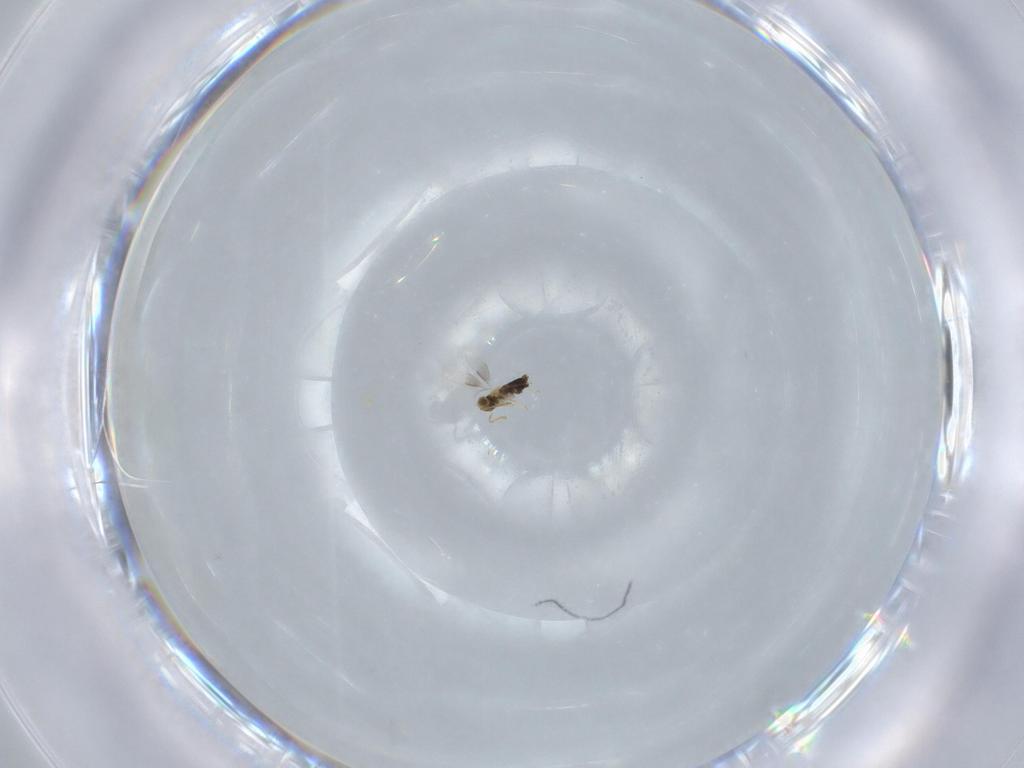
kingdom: Animalia
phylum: Arthropoda
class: Insecta
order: Hymenoptera
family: Aphelinidae
